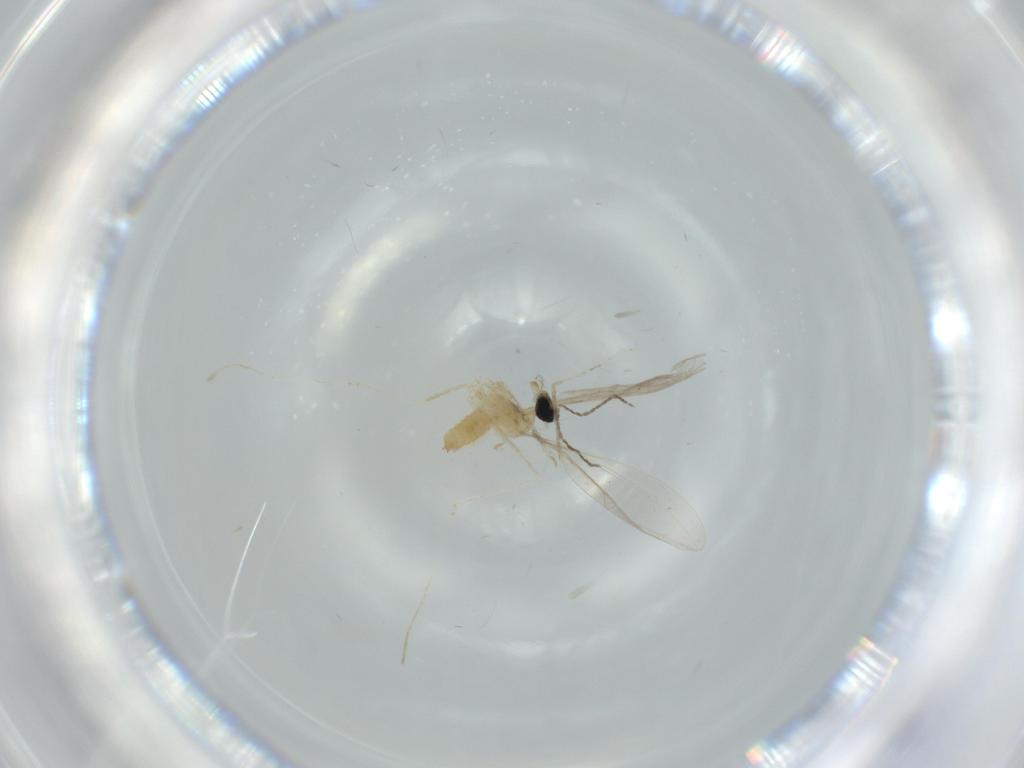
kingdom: Animalia
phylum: Arthropoda
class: Insecta
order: Diptera
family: Cecidomyiidae
